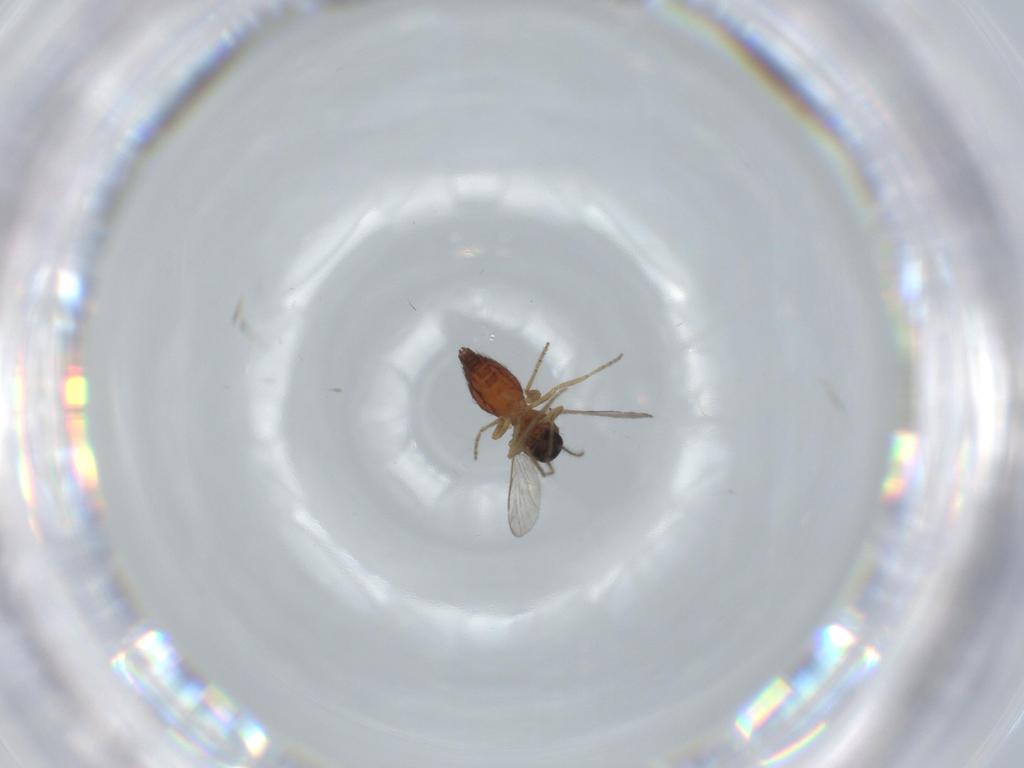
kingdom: Animalia
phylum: Arthropoda
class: Insecta
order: Diptera
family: Ceratopogonidae
